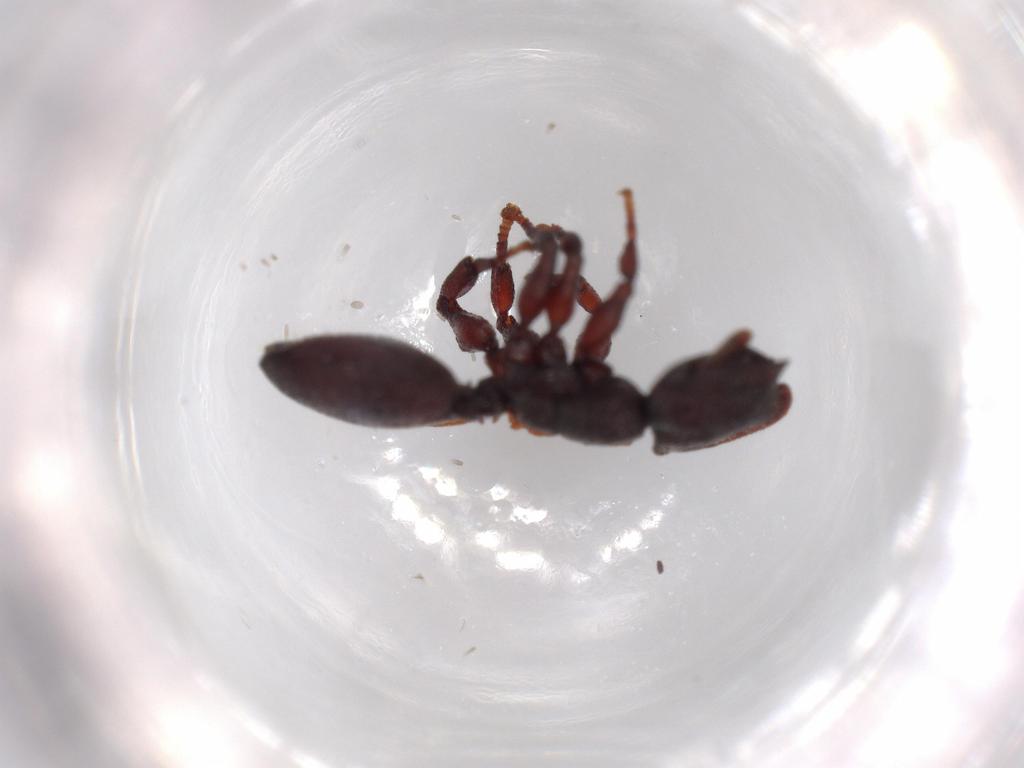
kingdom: Animalia
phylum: Arthropoda
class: Insecta
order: Hymenoptera
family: Formicidae
